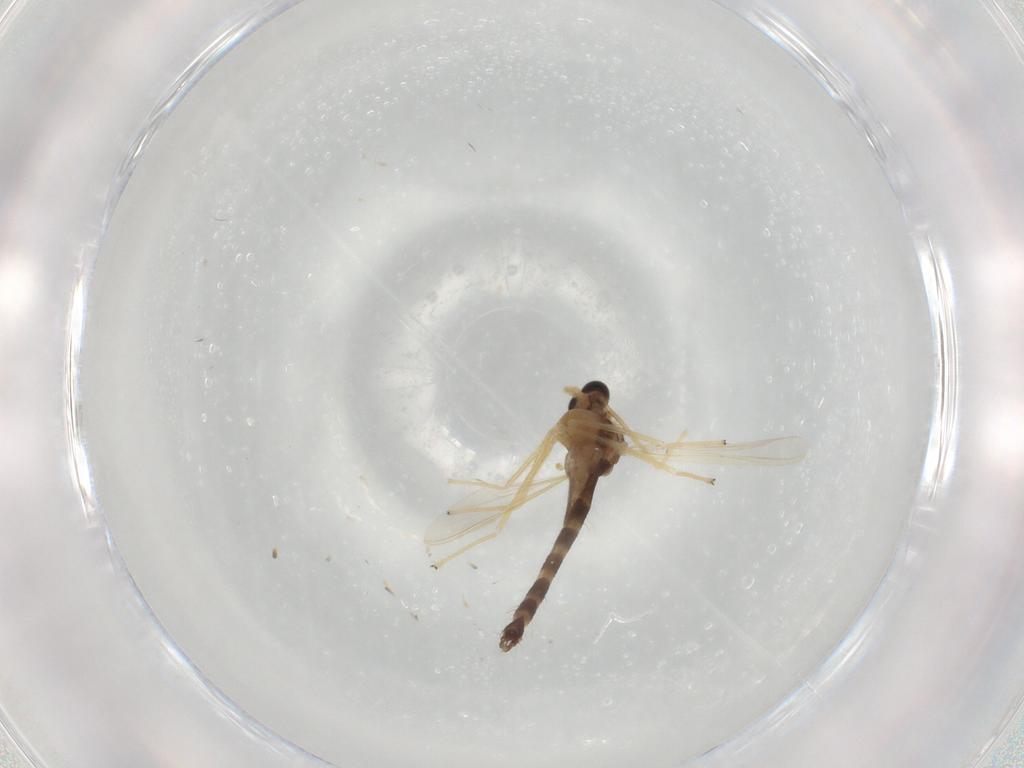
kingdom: Animalia
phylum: Arthropoda
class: Insecta
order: Diptera
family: Chironomidae
